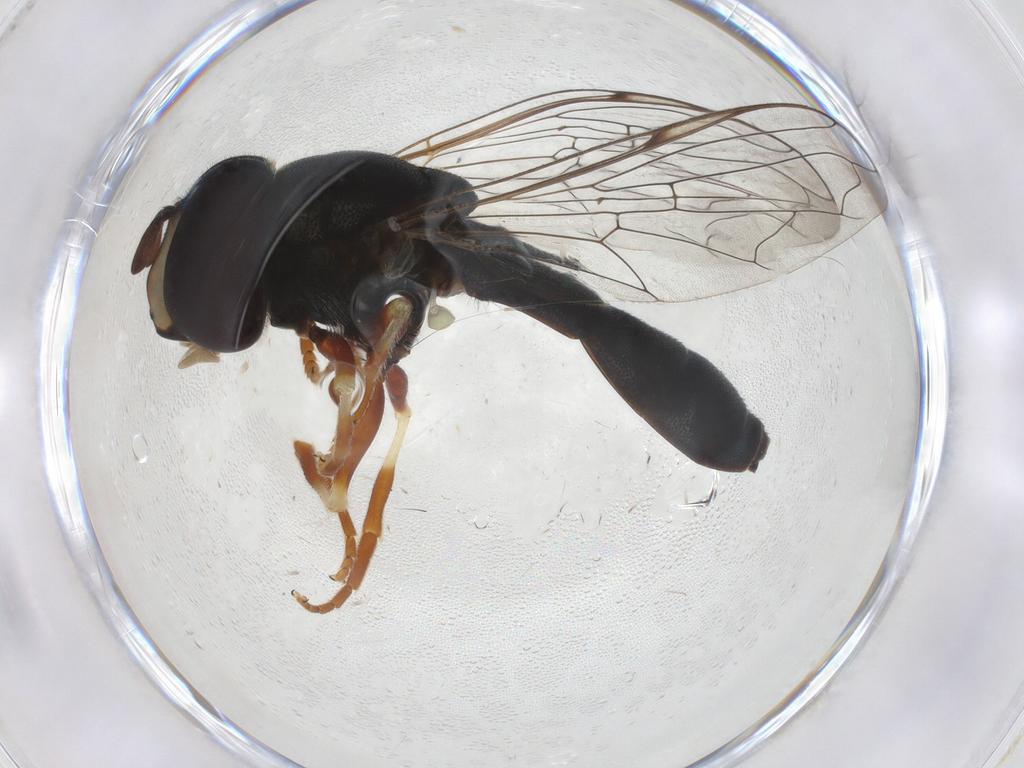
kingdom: Animalia
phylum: Arthropoda
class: Insecta
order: Diptera
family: Syrphidae
